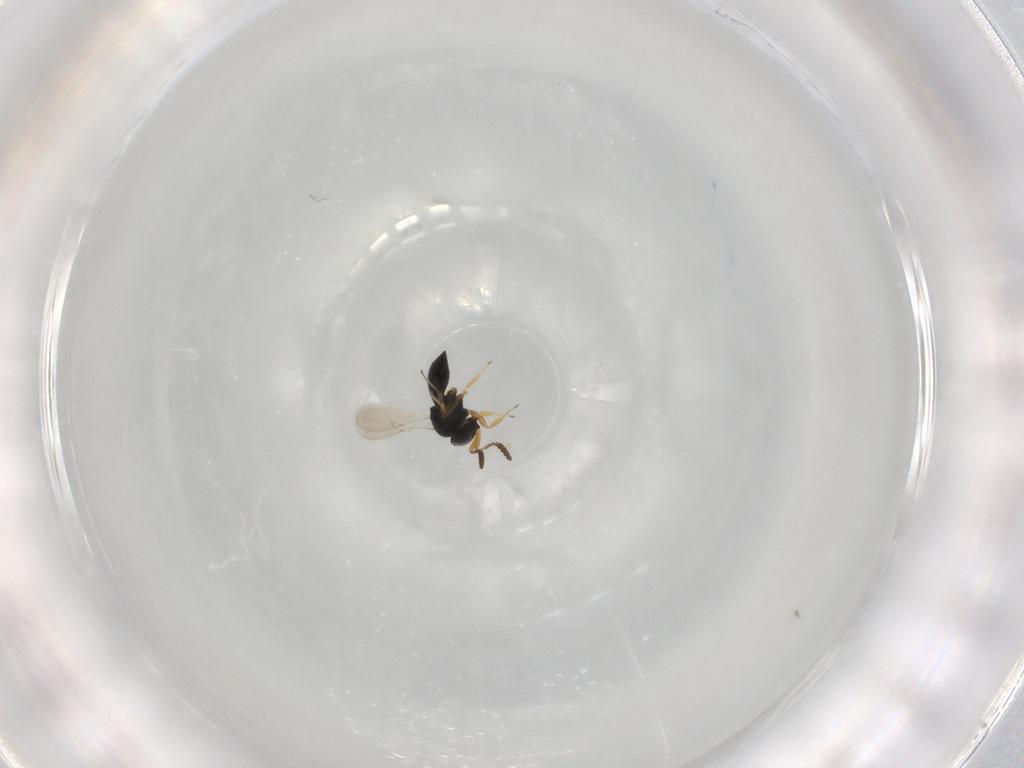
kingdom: Animalia
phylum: Arthropoda
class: Insecta
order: Hymenoptera
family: Scelionidae
